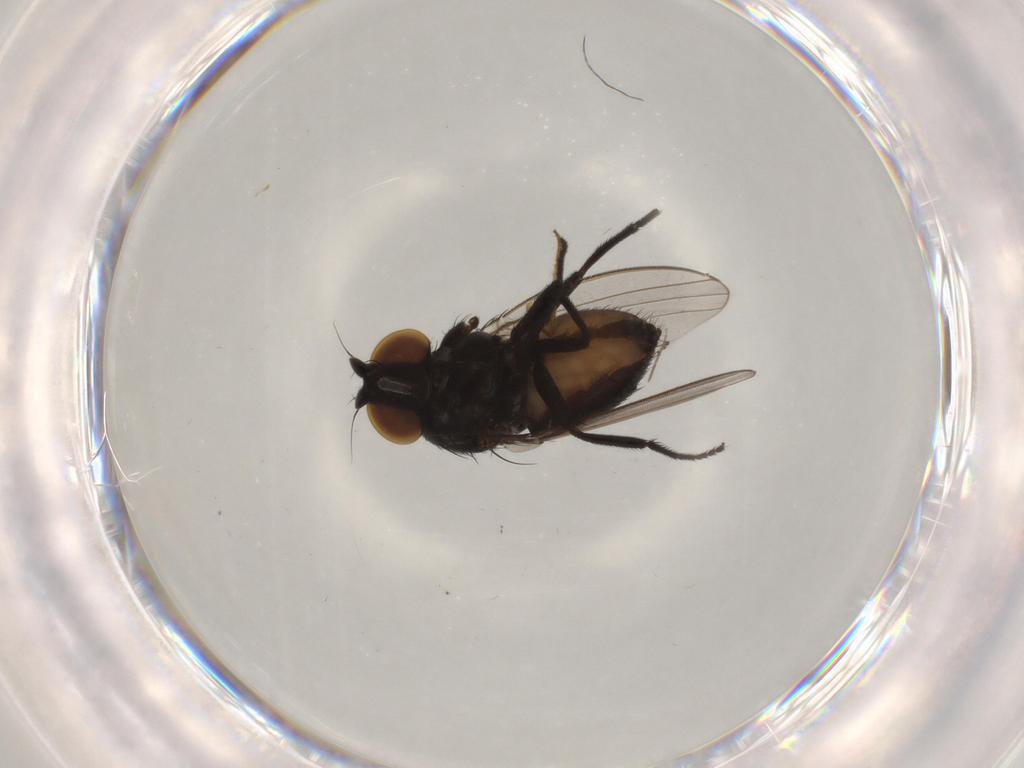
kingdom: Animalia
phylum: Arthropoda
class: Insecta
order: Diptera
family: Milichiidae
